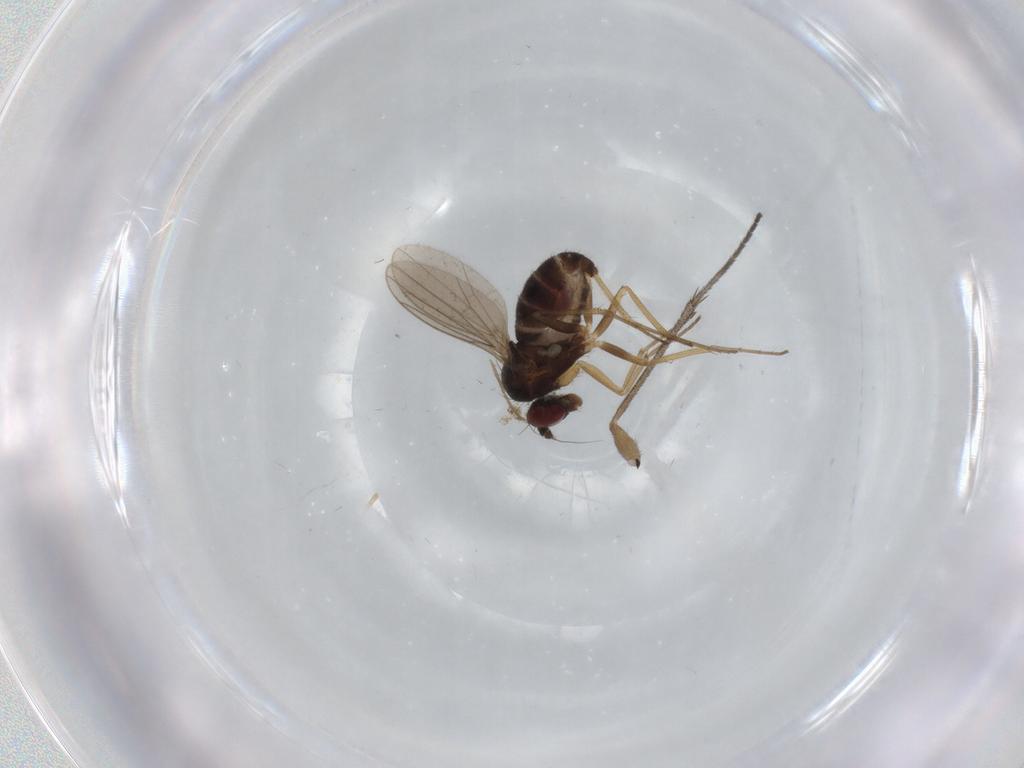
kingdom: Animalia
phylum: Arthropoda
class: Insecta
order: Diptera
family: Dolichopodidae
